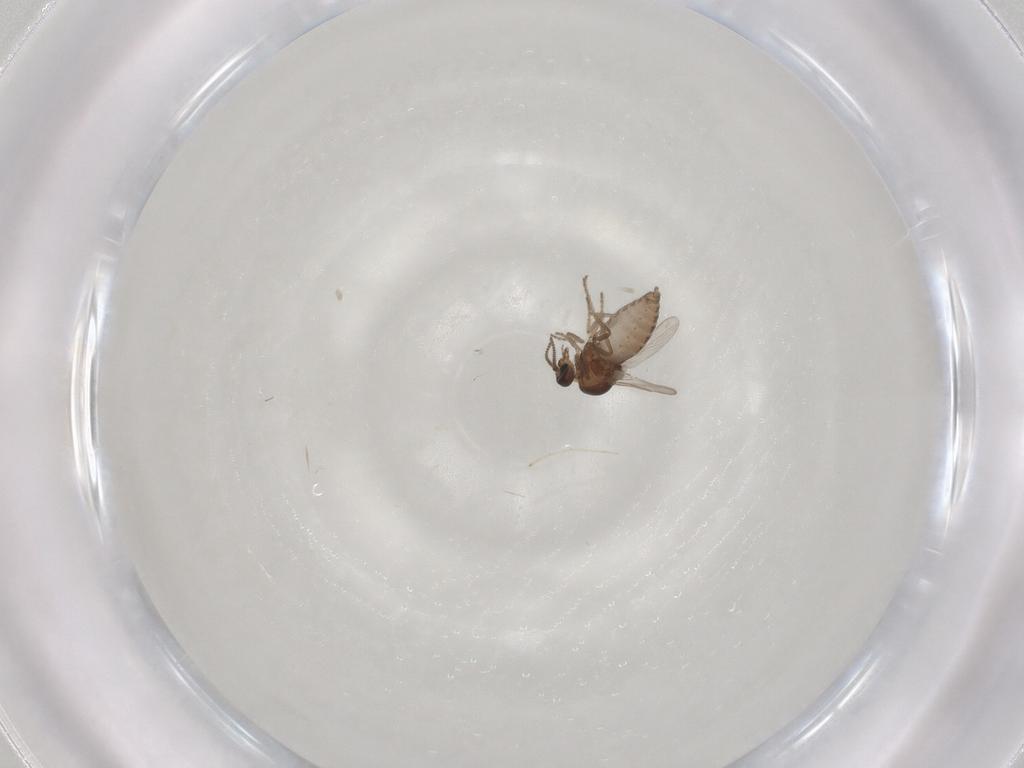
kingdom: Animalia
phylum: Arthropoda
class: Insecta
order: Diptera
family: Ceratopogonidae
